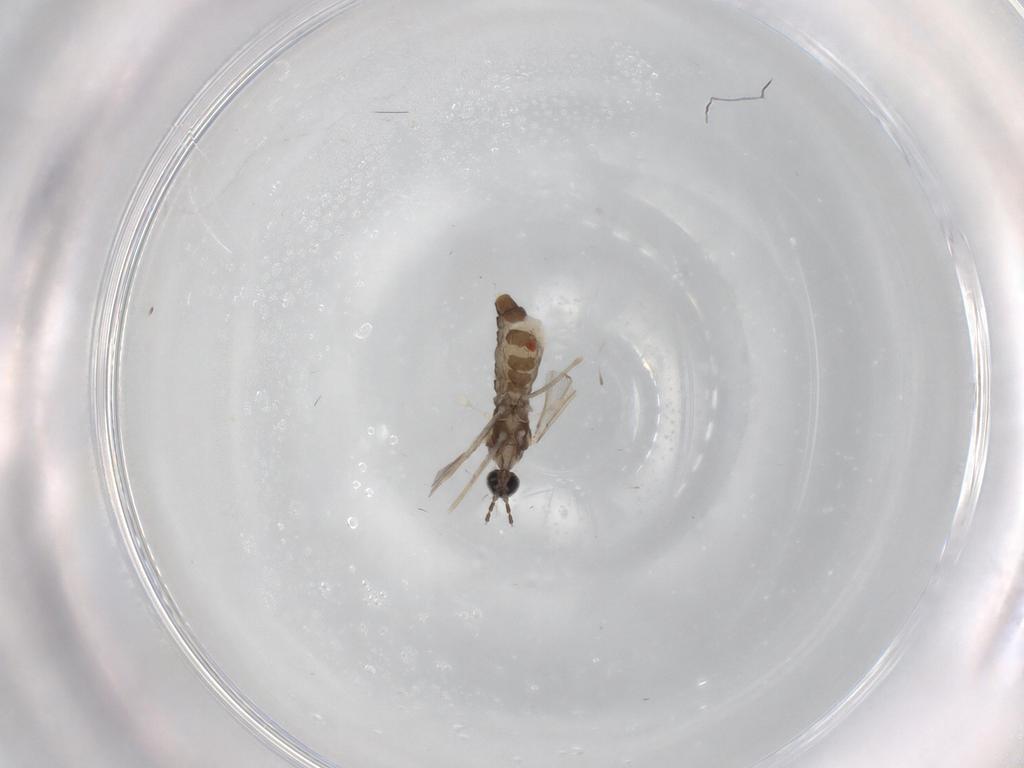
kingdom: Animalia
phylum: Arthropoda
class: Insecta
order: Diptera
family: Cecidomyiidae
